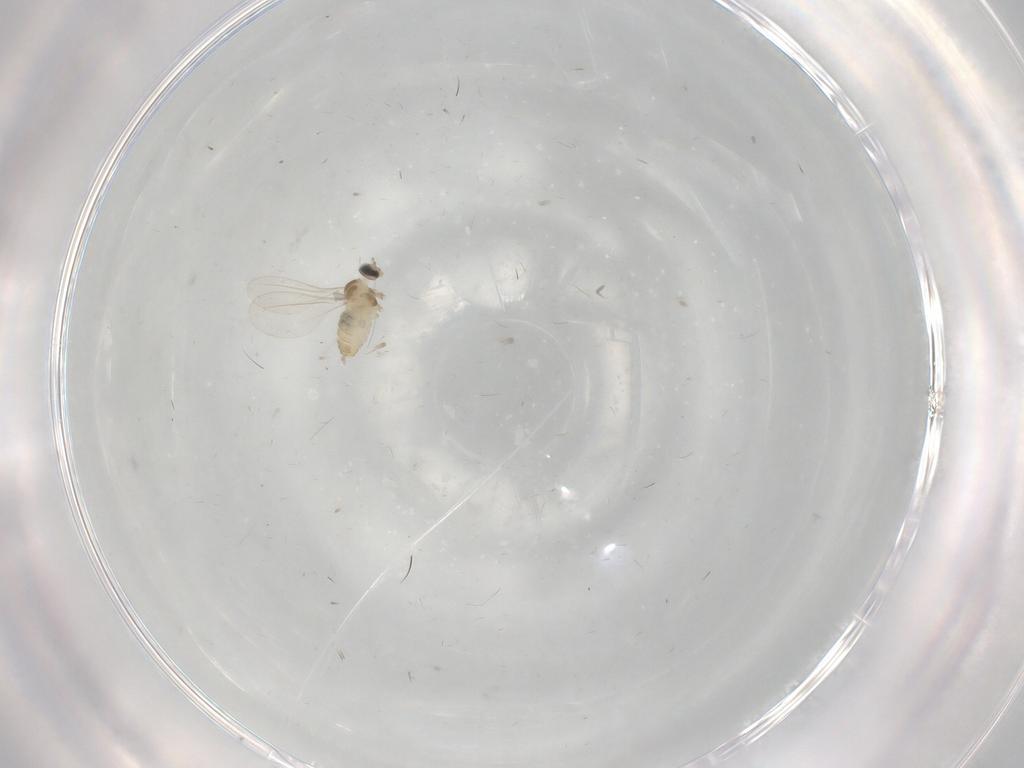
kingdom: Animalia
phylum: Arthropoda
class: Insecta
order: Diptera
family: Cecidomyiidae
